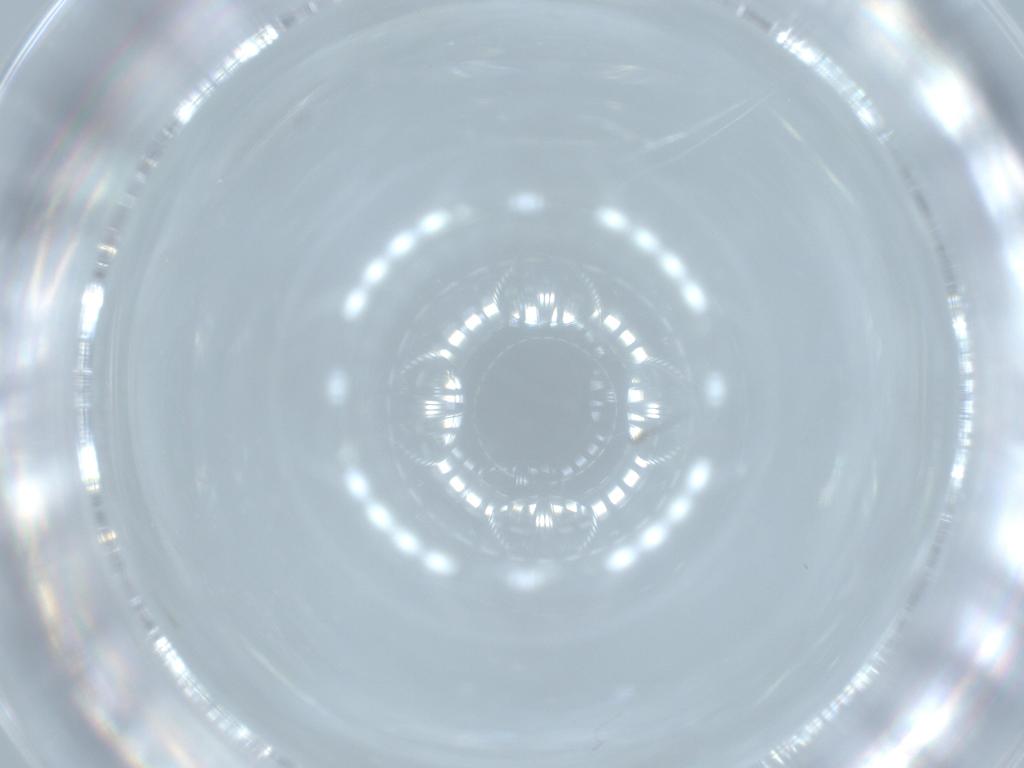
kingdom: Animalia
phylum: Arthropoda
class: Insecta
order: Hemiptera
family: Aleyrodidae
